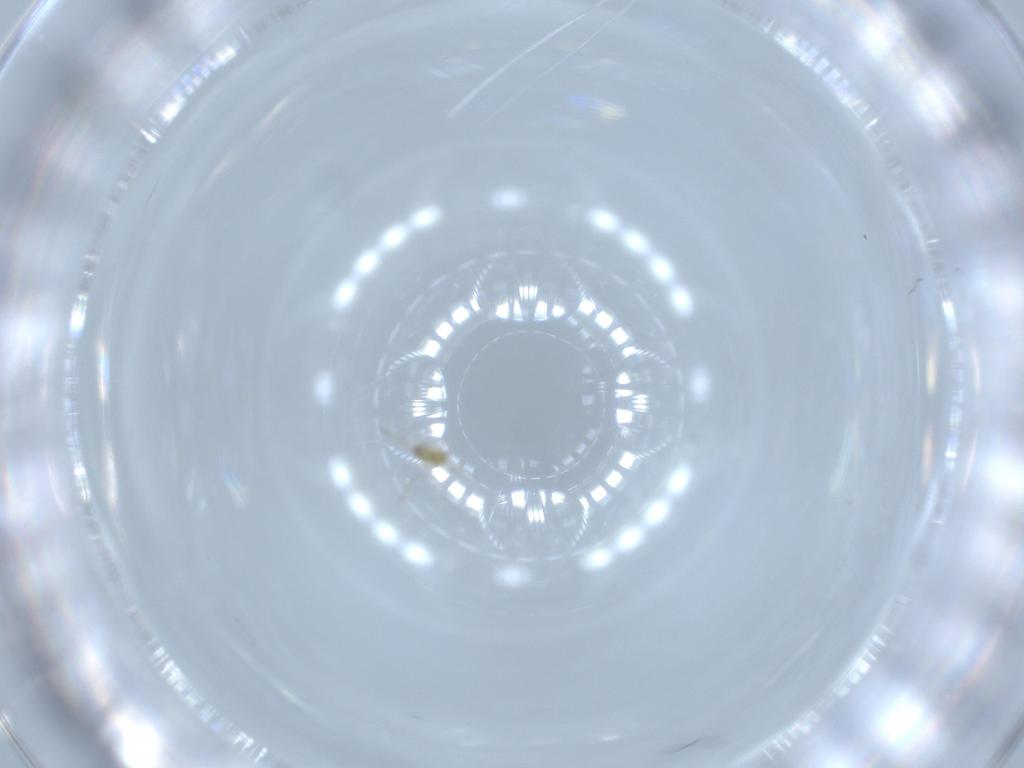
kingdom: Animalia
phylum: Arthropoda
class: Insecta
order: Hymenoptera
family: Mymaridae
